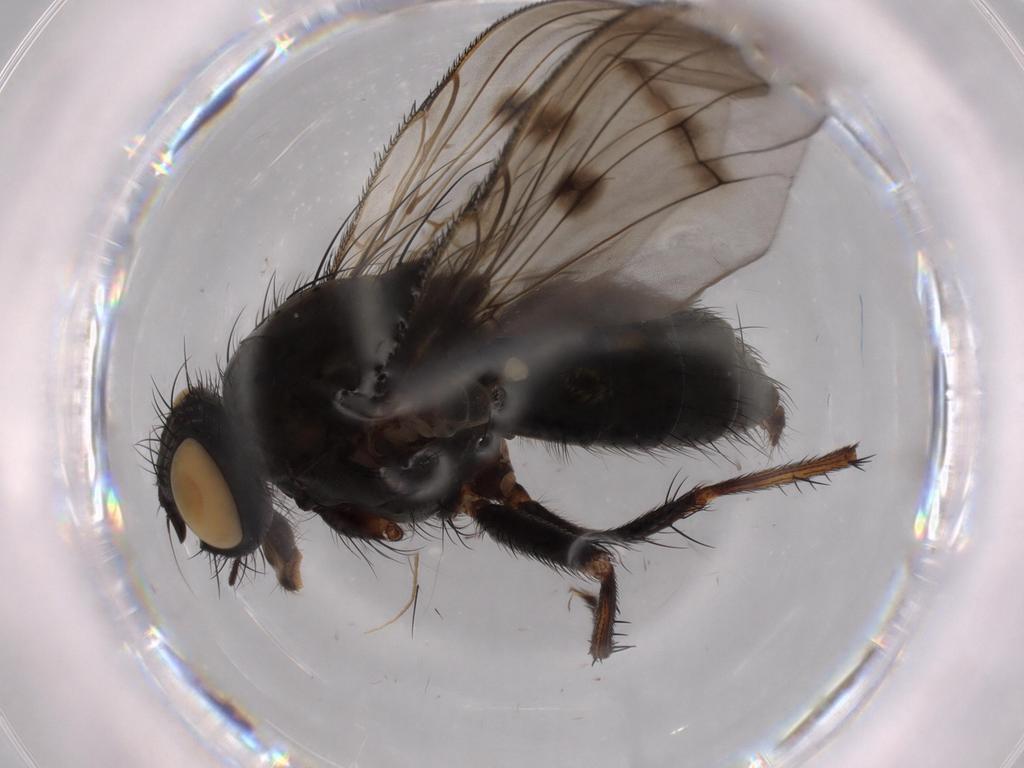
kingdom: Animalia
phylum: Arthropoda
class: Insecta
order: Diptera
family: Muscidae
